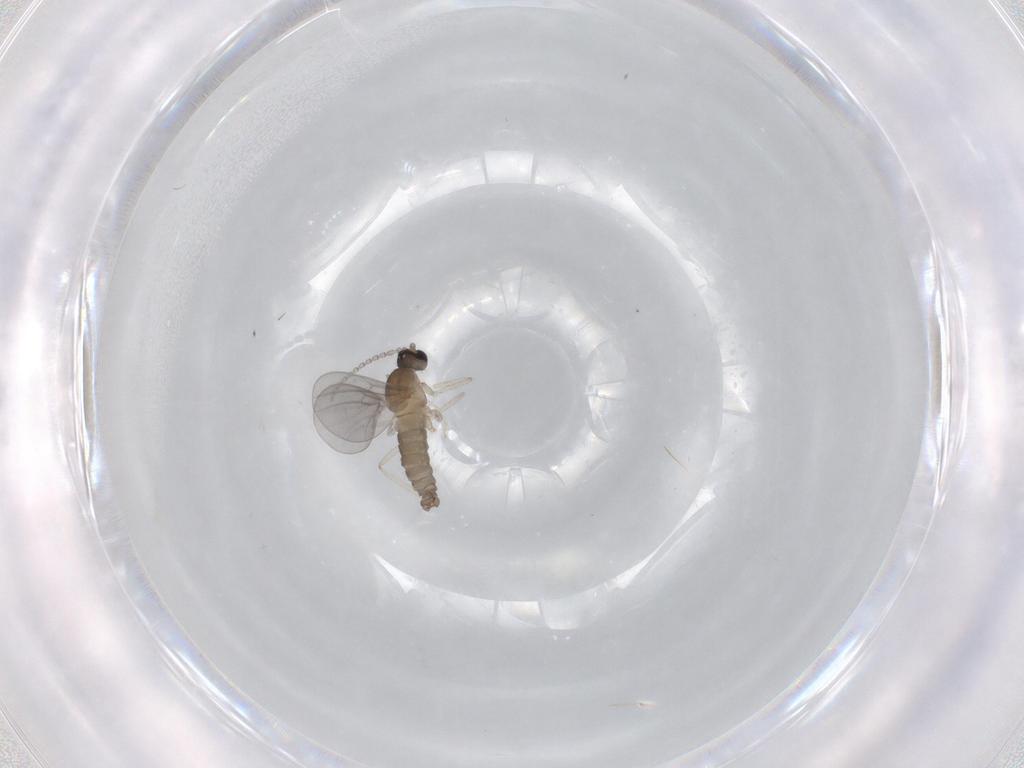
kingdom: Animalia
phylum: Arthropoda
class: Insecta
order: Diptera
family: Cecidomyiidae
